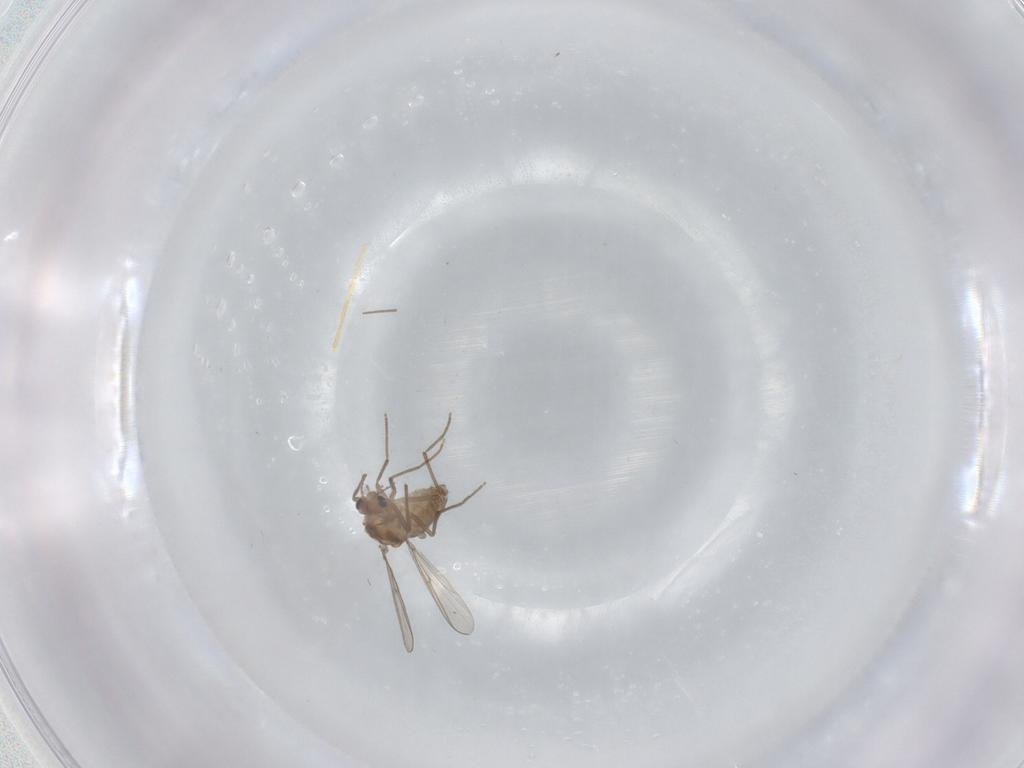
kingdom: Animalia
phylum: Arthropoda
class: Insecta
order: Diptera
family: Chironomidae
